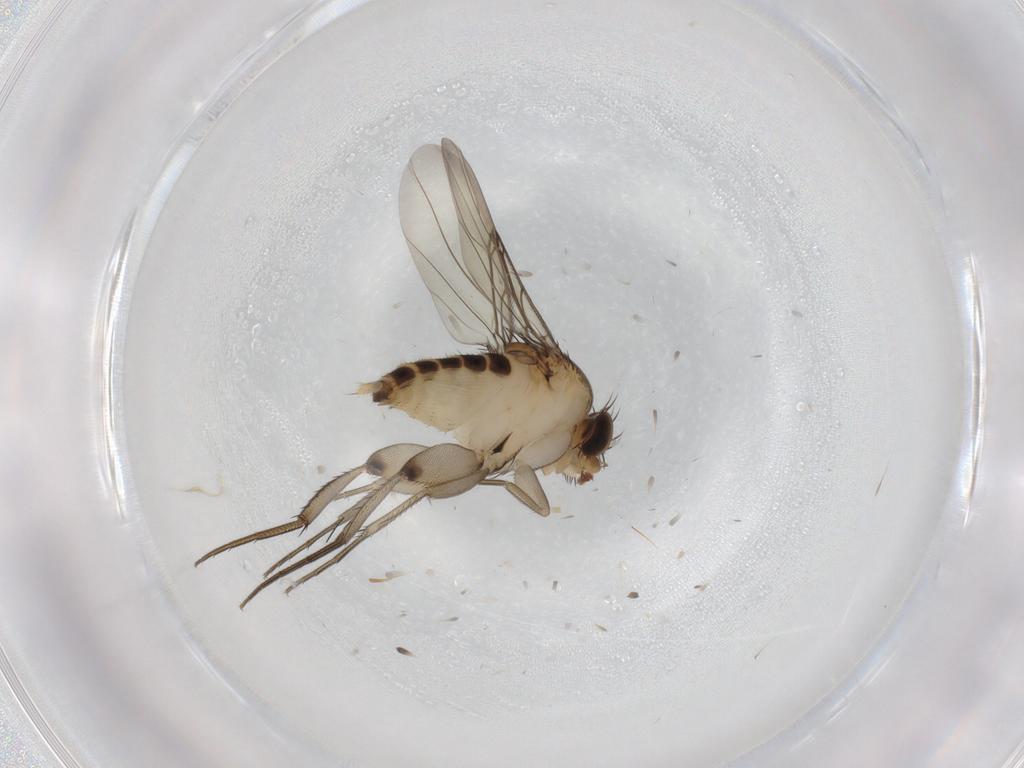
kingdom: Animalia
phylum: Arthropoda
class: Insecta
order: Diptera
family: Phoridae
